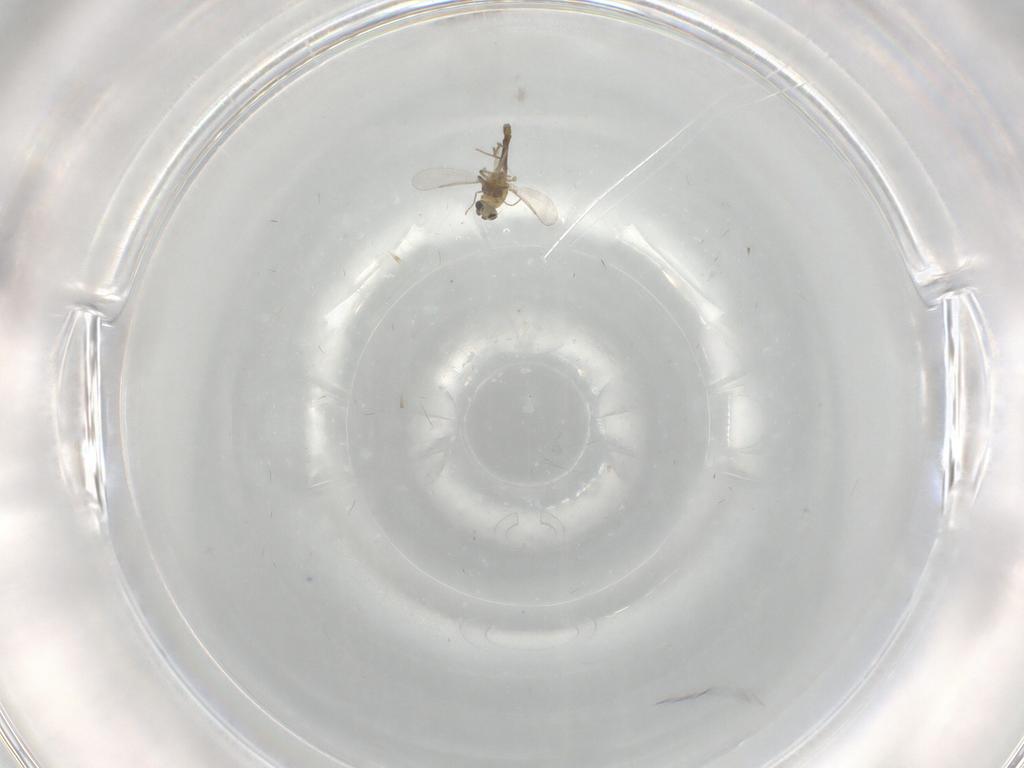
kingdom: Animalia
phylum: Arthropoda
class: Insecta
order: Diptera
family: Chironomidae
